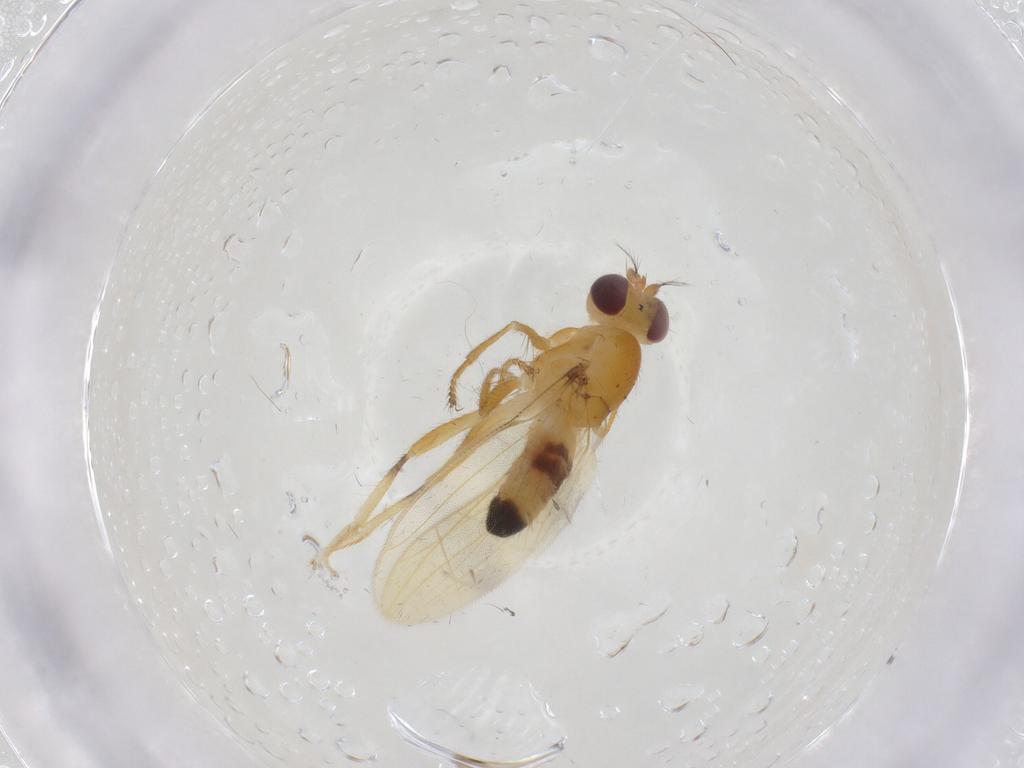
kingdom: Animalia
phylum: Arthropoda
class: Insecta
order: Diptera
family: Periscelididae
